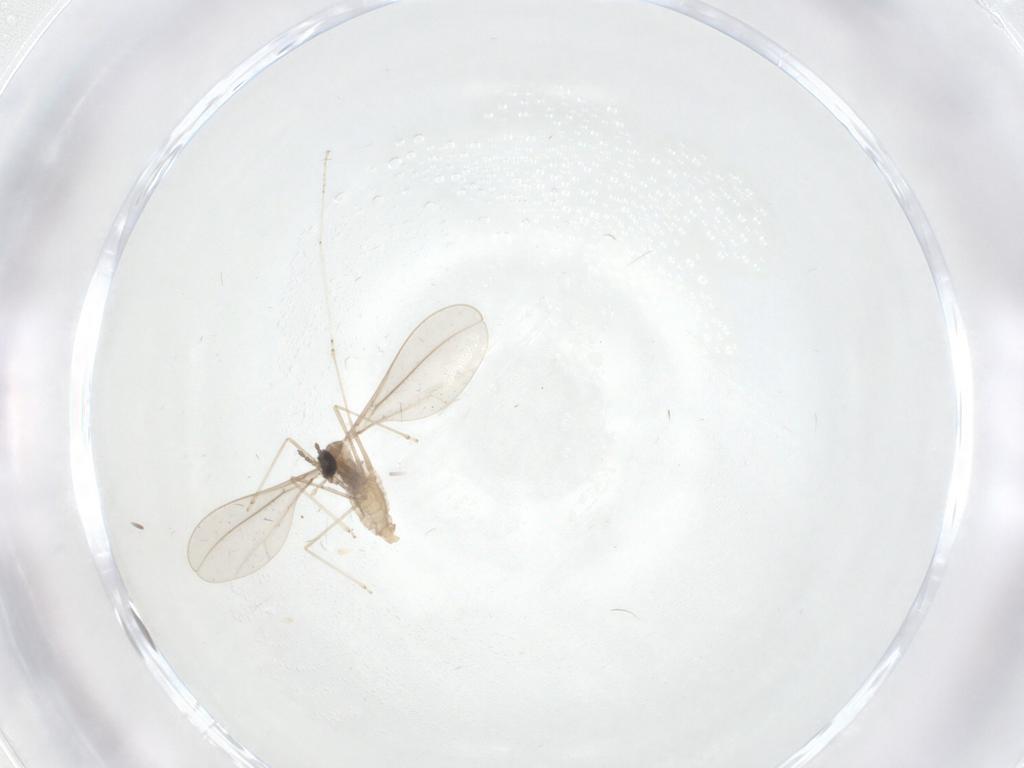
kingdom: Animalia
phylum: Arthropoda
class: Insecta
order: Diptera
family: Cecidomyiidae
